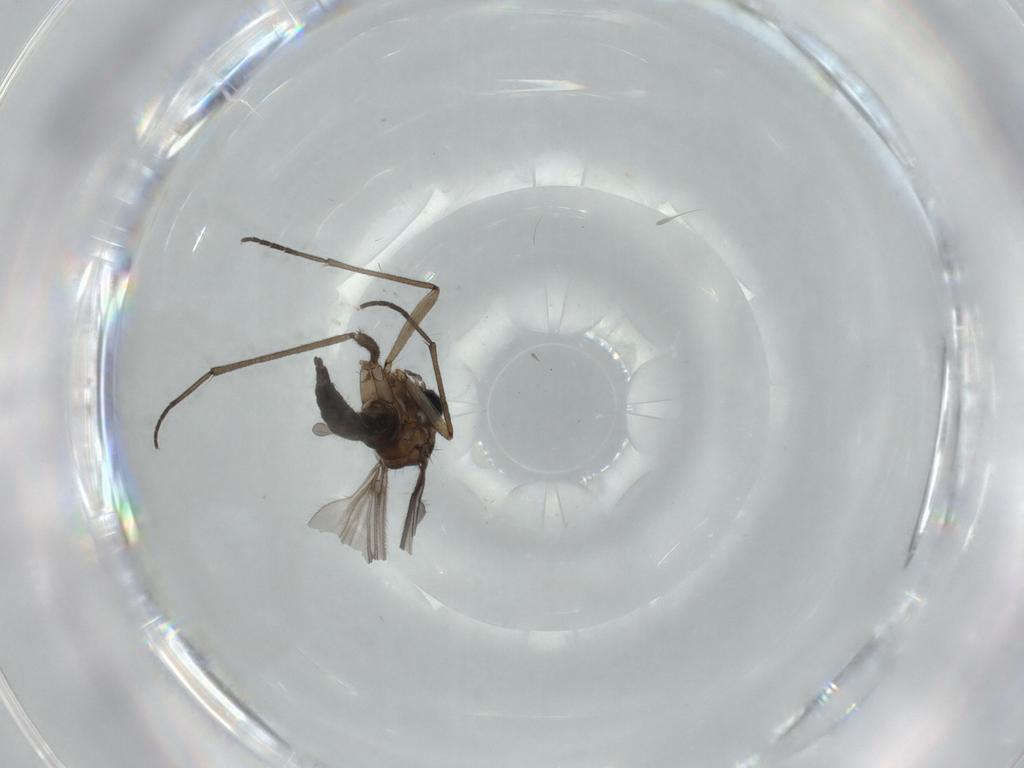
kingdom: Animalia
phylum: Arthropoda
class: Insecta
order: Diptera
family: Sciaridae
